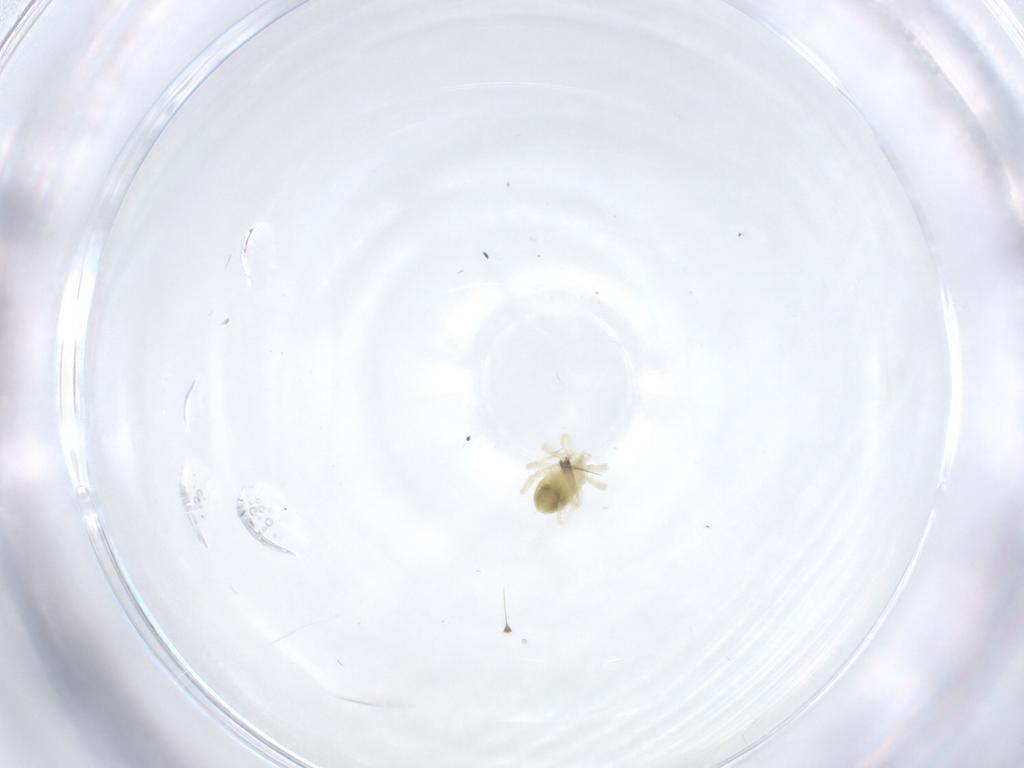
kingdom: Animalia
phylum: Arthropoda
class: Arachnida
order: Trombidiformes
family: Anystidae
